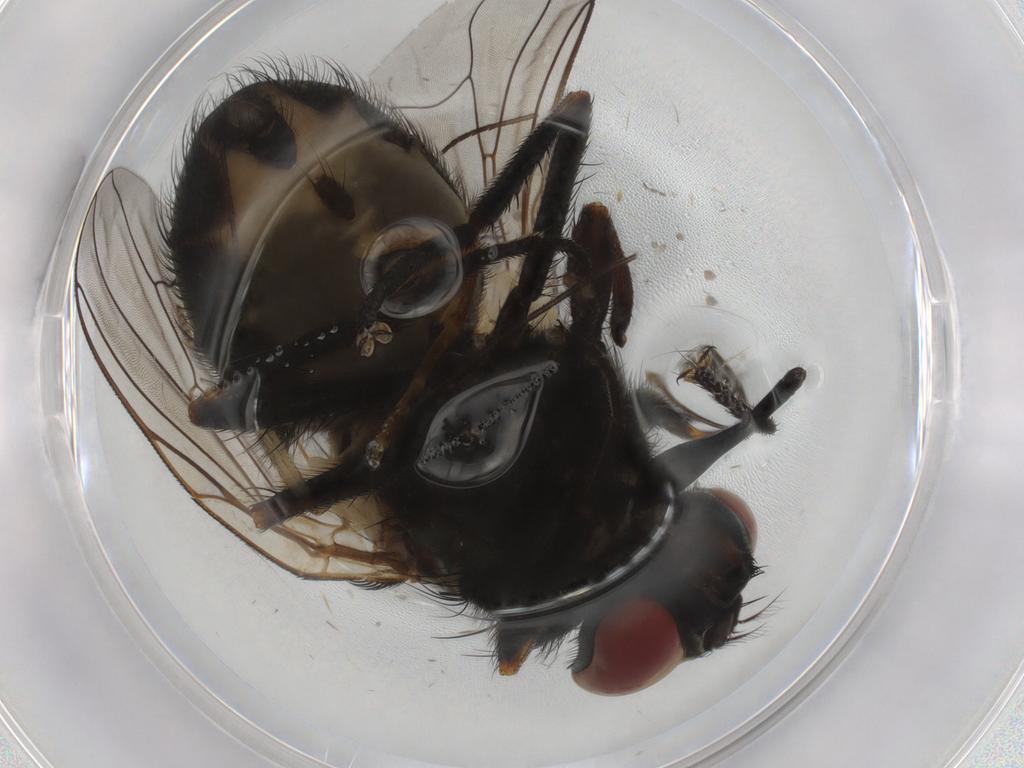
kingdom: Animalia
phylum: Arthropoda
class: Insecta
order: Diptera
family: Muscidae
